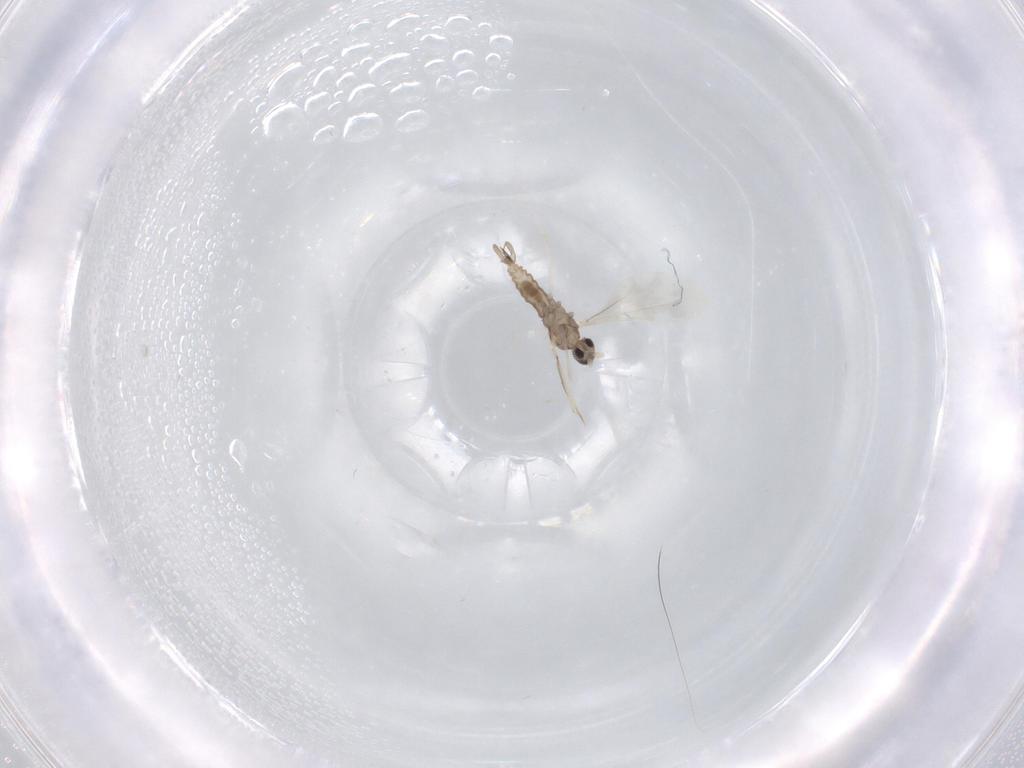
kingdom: Animalia
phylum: Arthropoda
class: Insecta
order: Diptera
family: Cecidomyiidae
